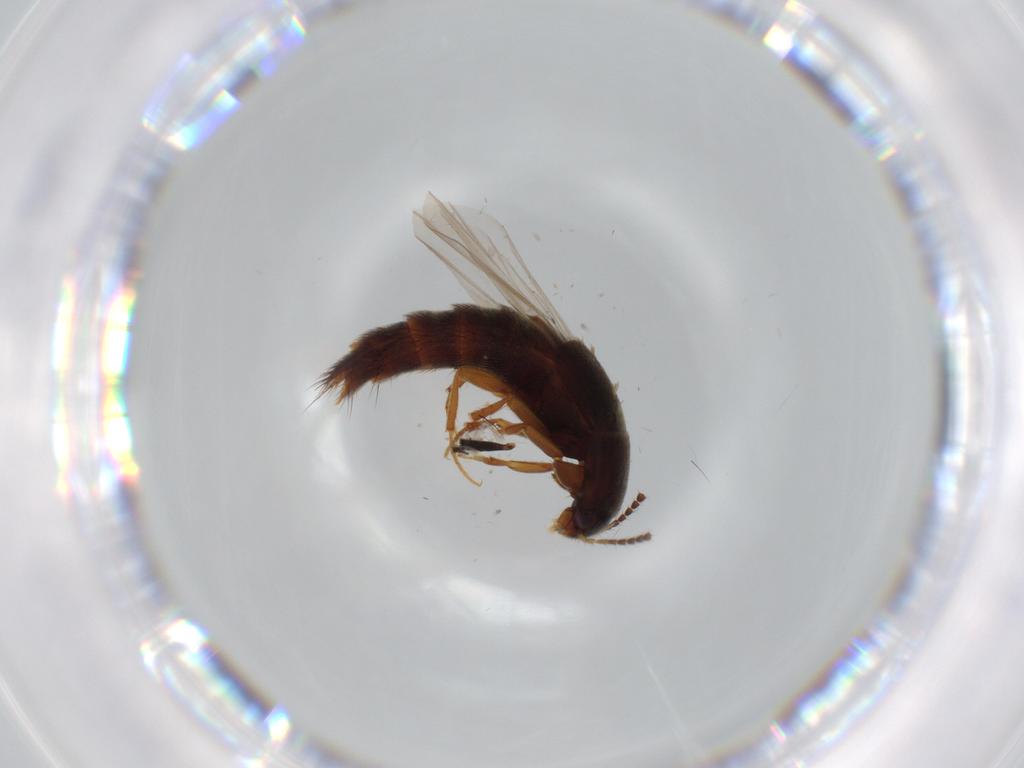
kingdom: Animalia
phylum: Arthropoda
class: Insecta
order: Coleoptera
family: Staphylinidae
